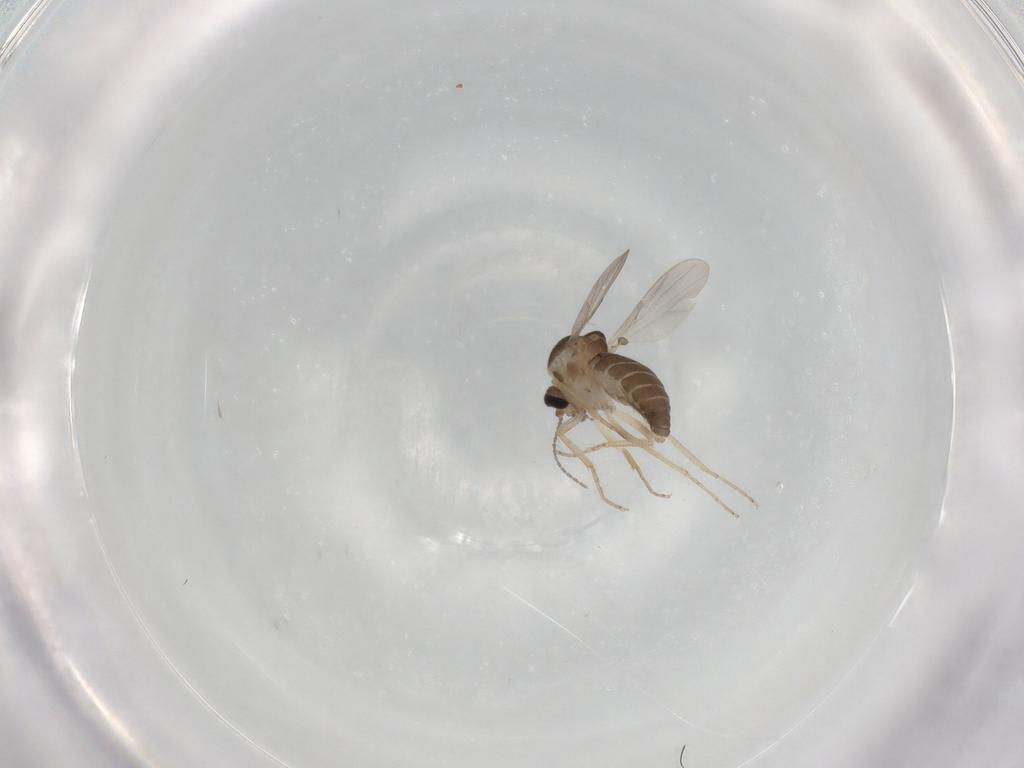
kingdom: Animalia
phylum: Arthropoda
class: Insecta
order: Diptera
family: Ceratopogonidae
